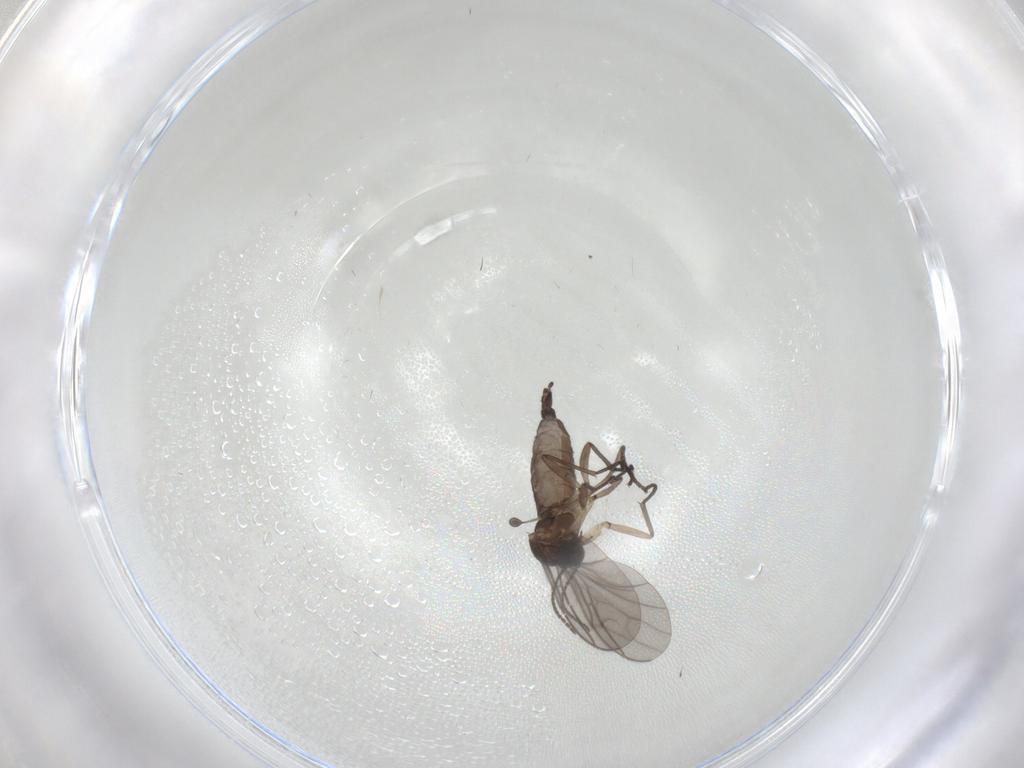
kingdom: Animalia
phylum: Arthropoda
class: Insecta
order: Diptera
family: Sciaridae
